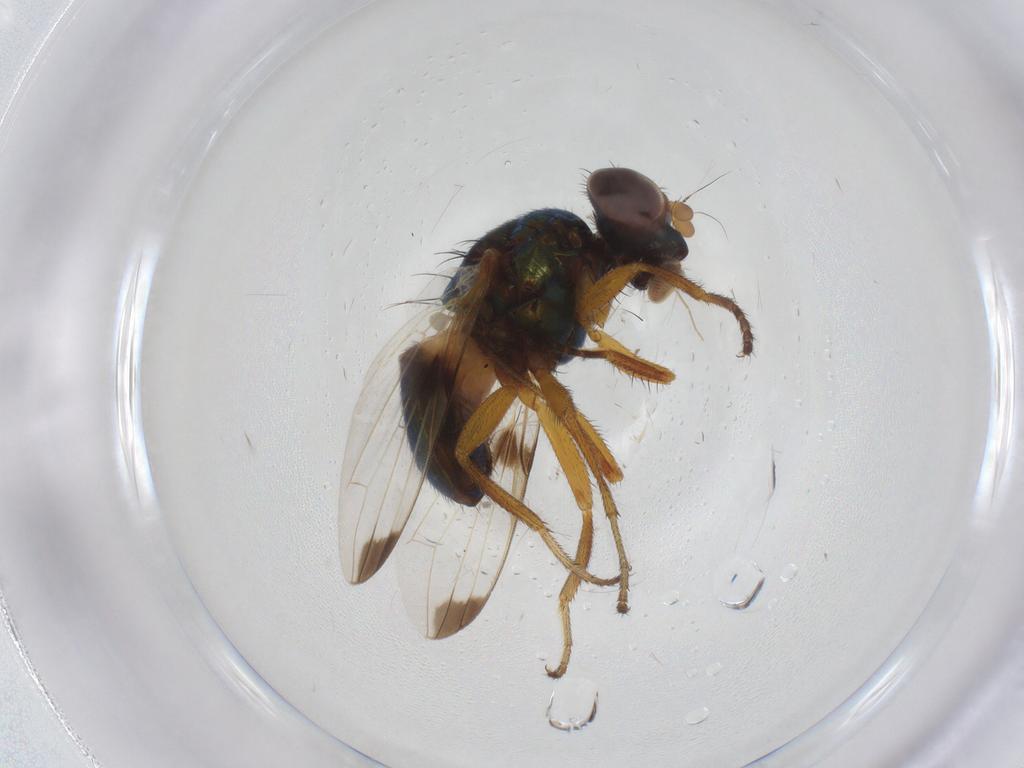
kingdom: Animalia
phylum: Arthropoda
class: Insecta
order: Diptera
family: Ulidiidae
